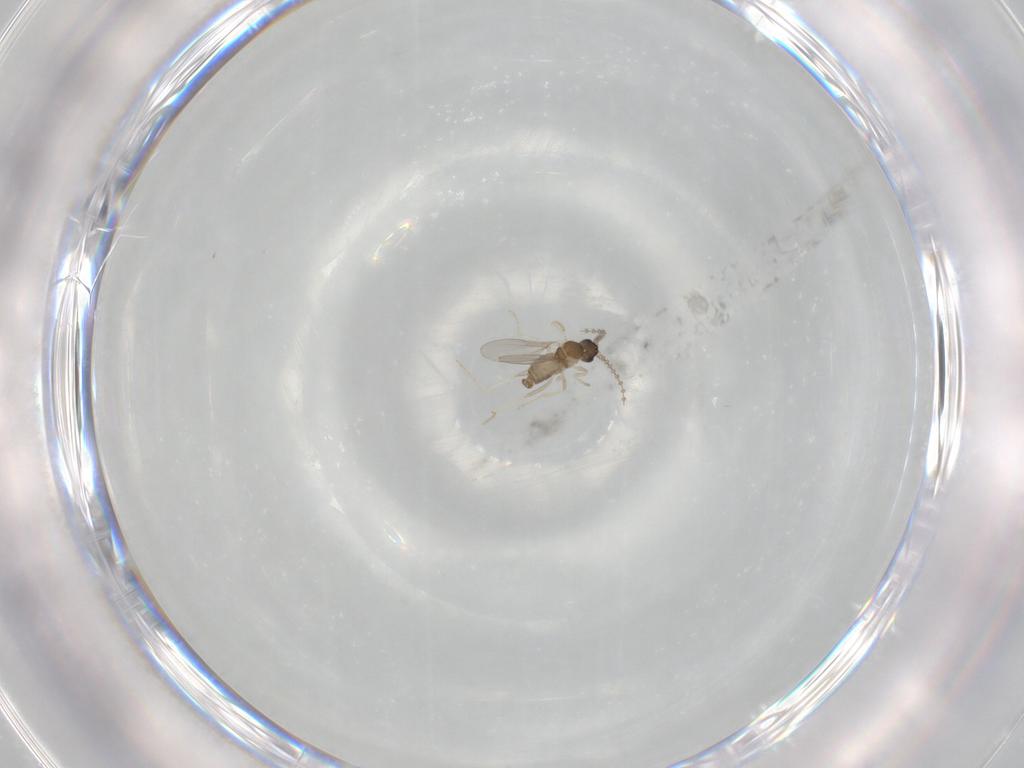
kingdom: Animalia
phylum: Arthropoda
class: Insecta
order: Diptera
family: Cecidomyiidae
